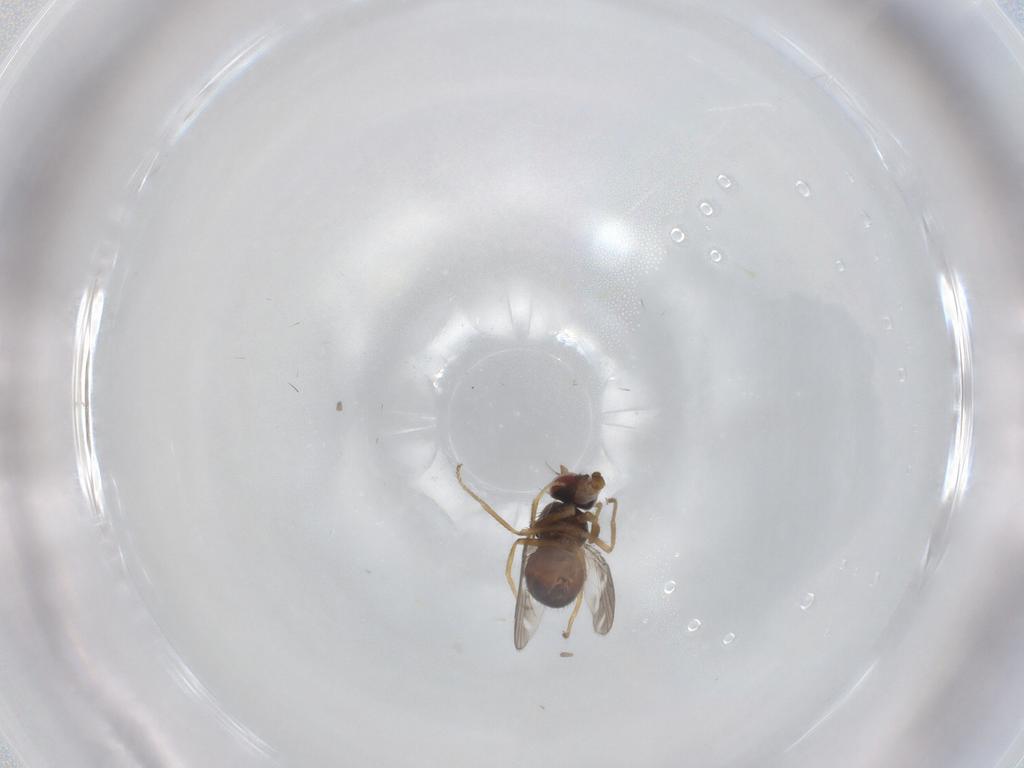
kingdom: Animalia
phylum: Arthropoda
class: Insecta
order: Diptera
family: Ephydridae
